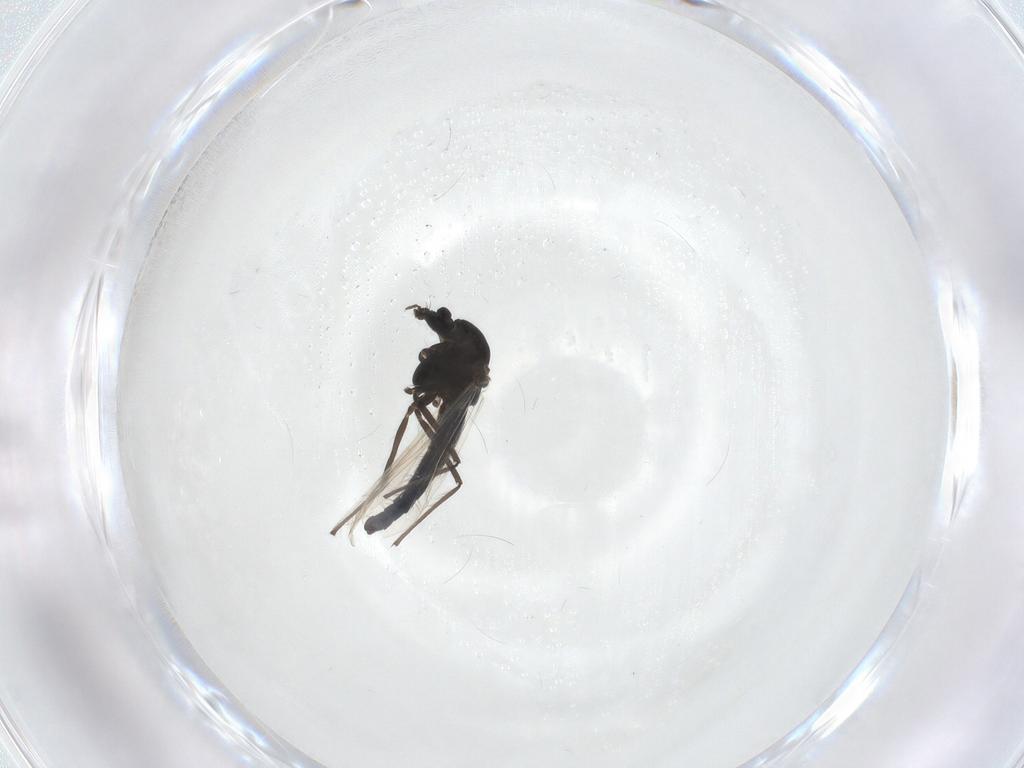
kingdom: Animalia
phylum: Arthropoda
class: Insecta
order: Diptera
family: Chironomidae
